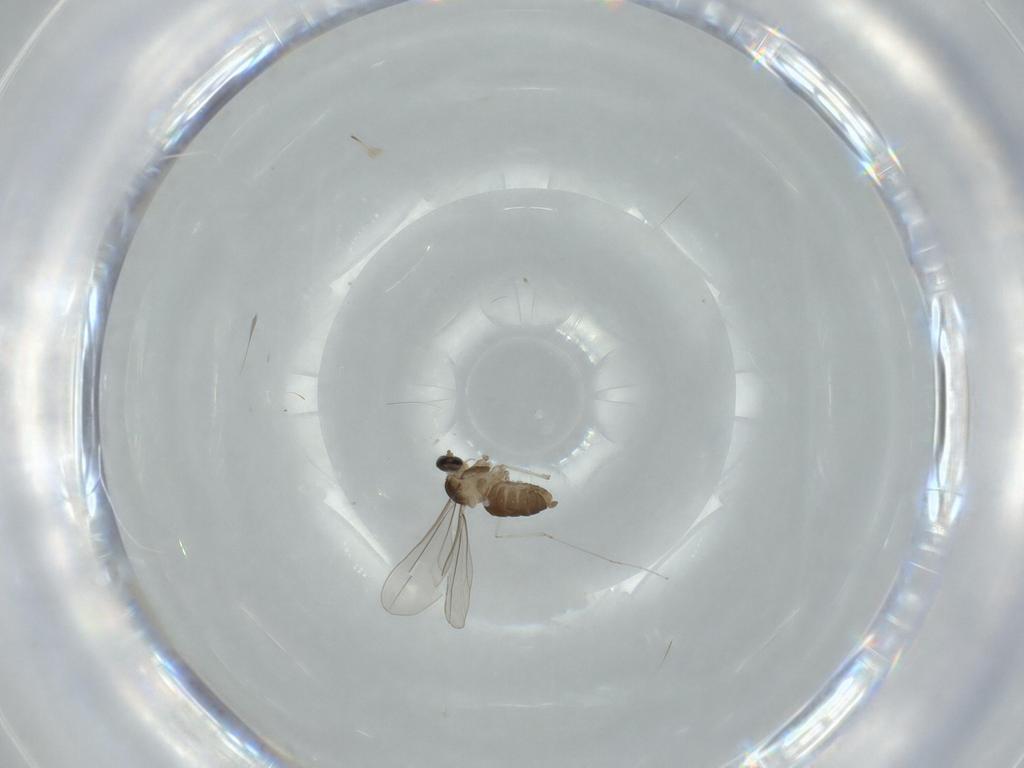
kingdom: Animalia
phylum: Arthropoda
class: Insecta
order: Diptera
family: Cecidomyiidae
